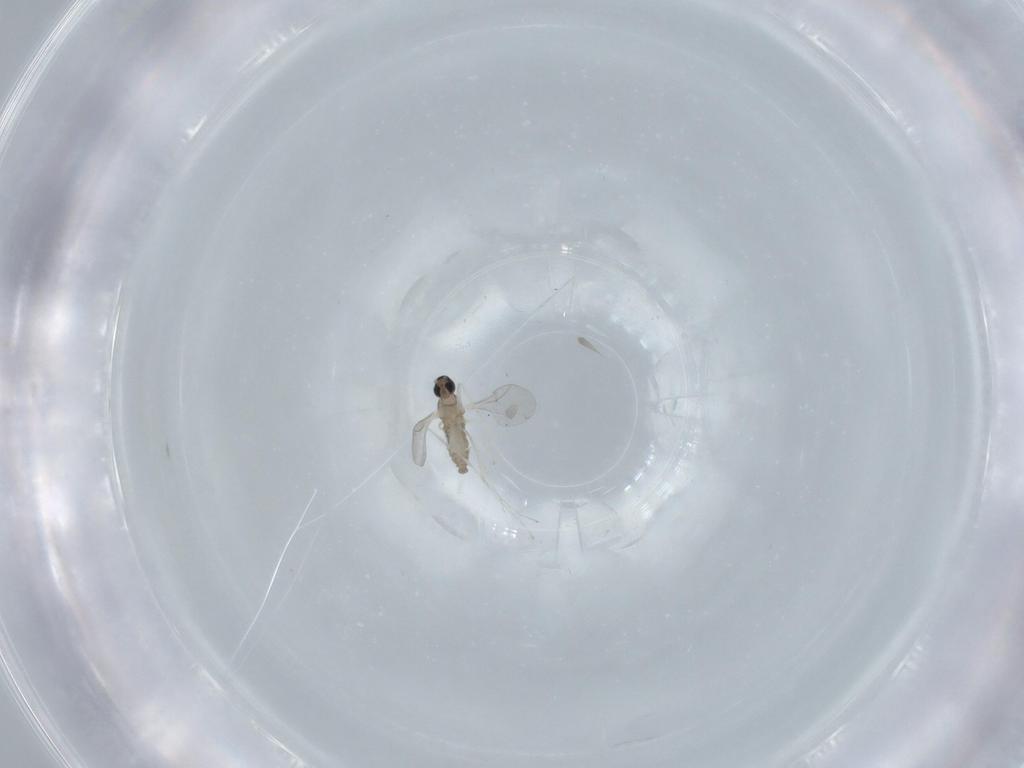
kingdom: Animalia
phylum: Arthropoda
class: Insecta
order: Diptera
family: Cecidomyiidae
